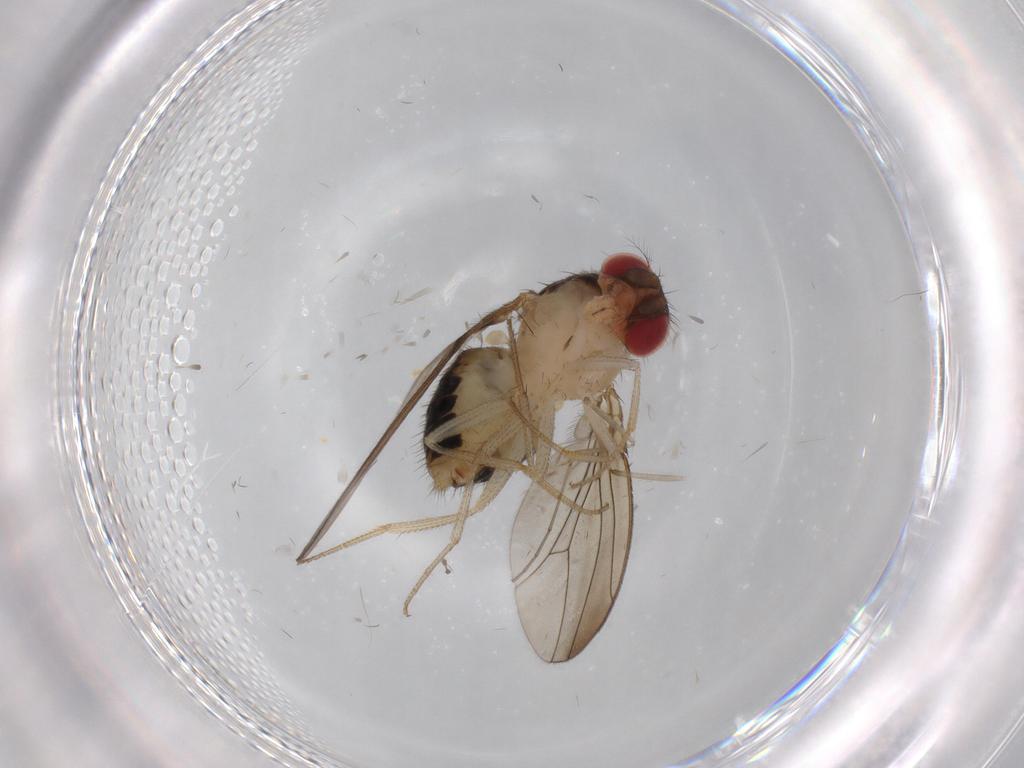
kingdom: Animalia
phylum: Arthropoda
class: Insecta
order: Diptera
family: Drosophilidae
